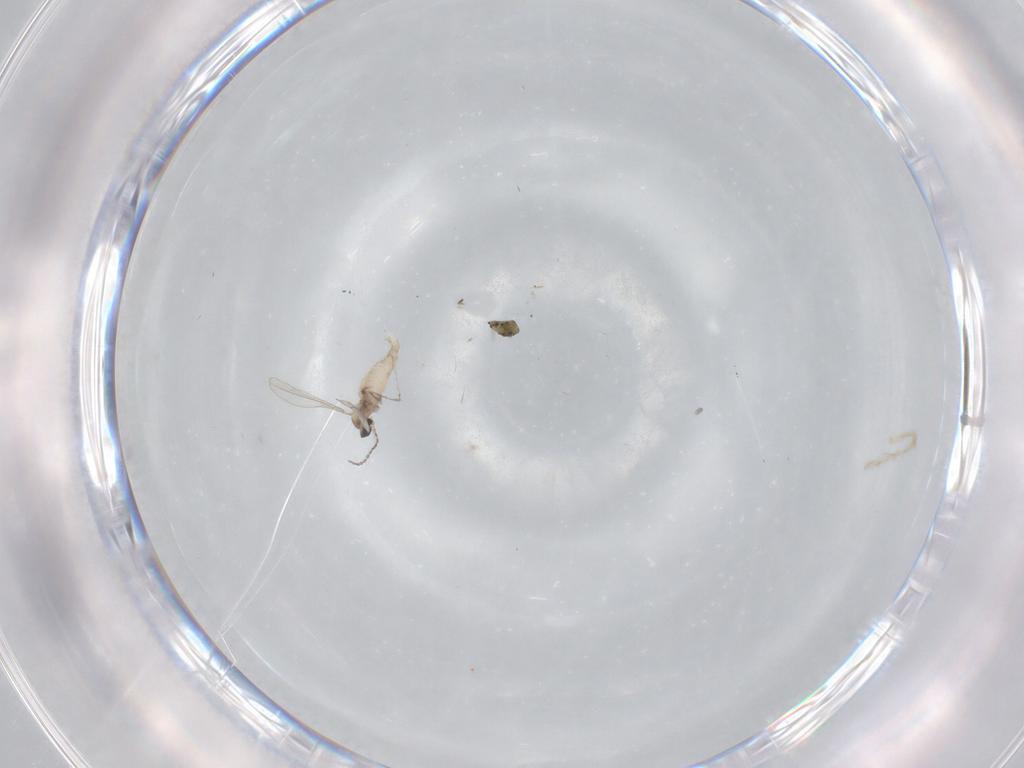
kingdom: Animalia
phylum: Arthropoda
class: Insecta
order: Diptera
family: Cecidomyiidae
